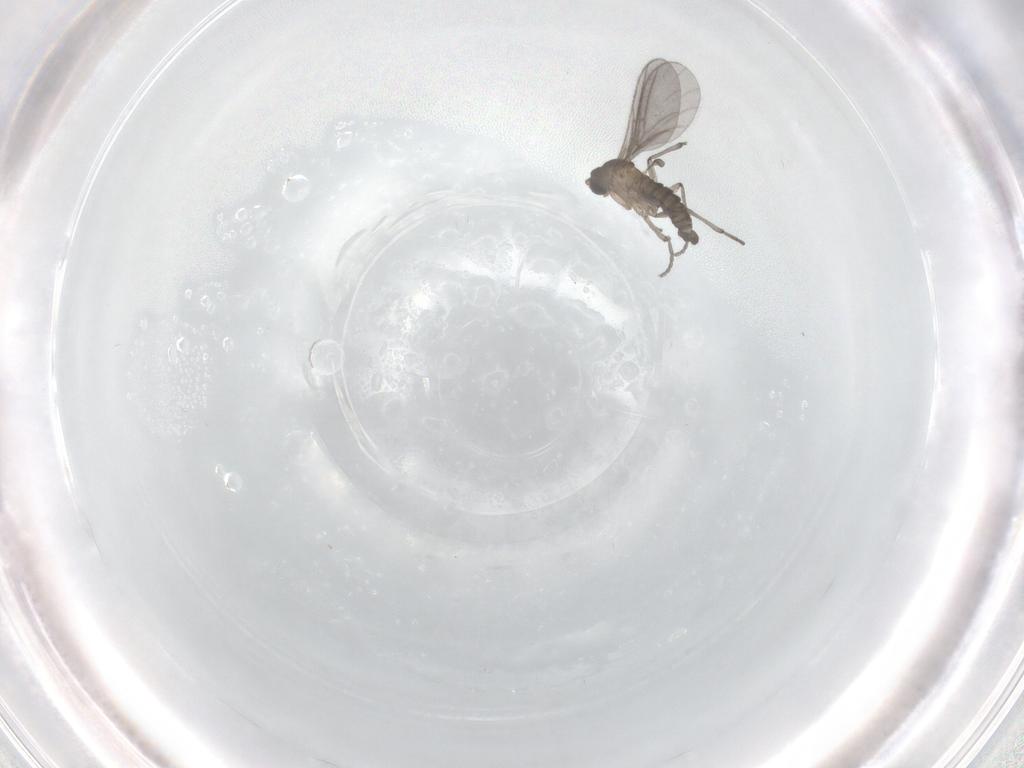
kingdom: Animalia
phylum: Arthropoda
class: Insecta
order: Diptera
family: Sciaridae
